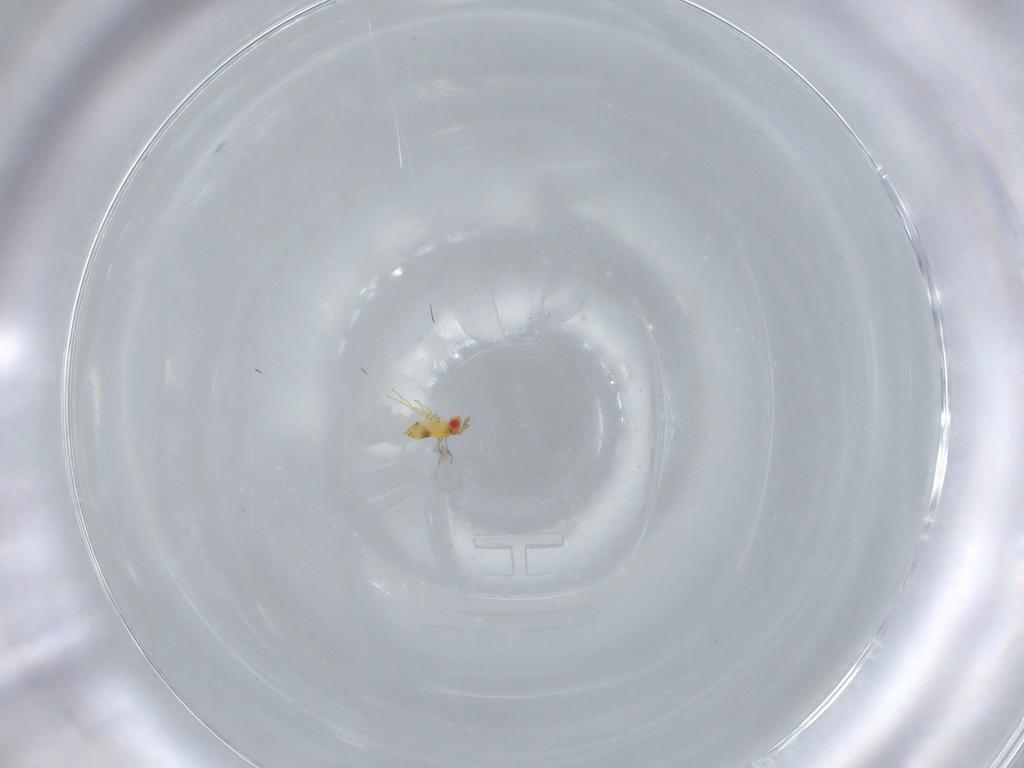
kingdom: Animalia
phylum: Arthropoda
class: Insecta
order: Hymenoptera
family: Trichogrammatidae
